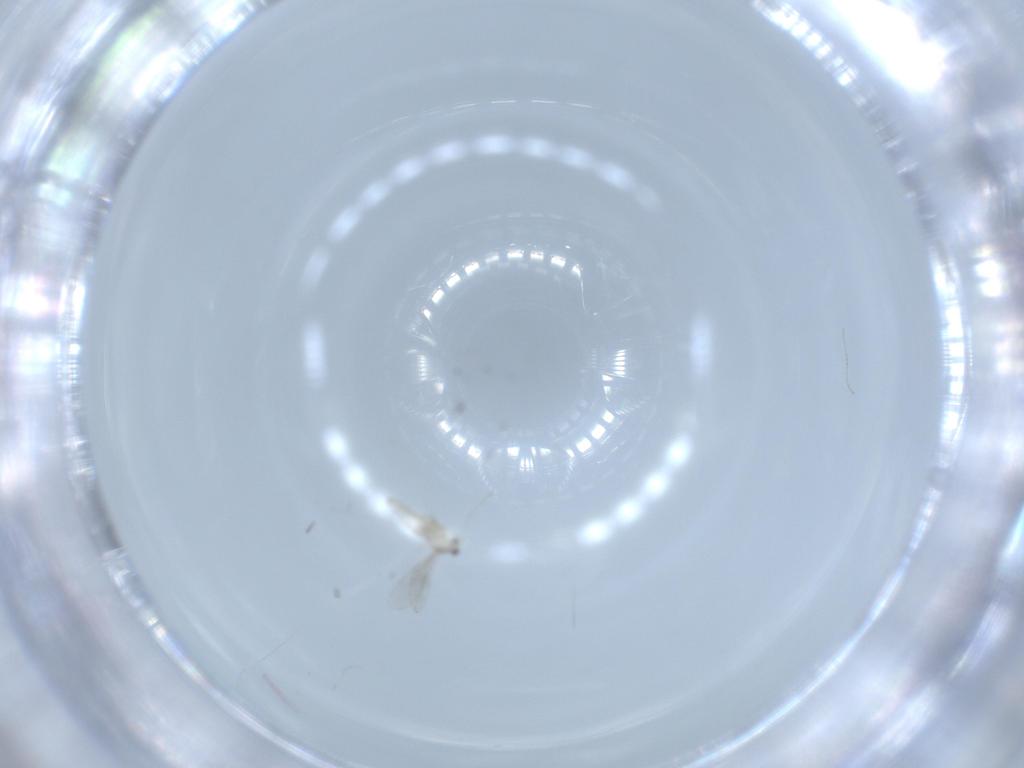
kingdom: Animalia
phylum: Arthropoda
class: Insecta
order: Diptera
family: Cecidomyiidae
